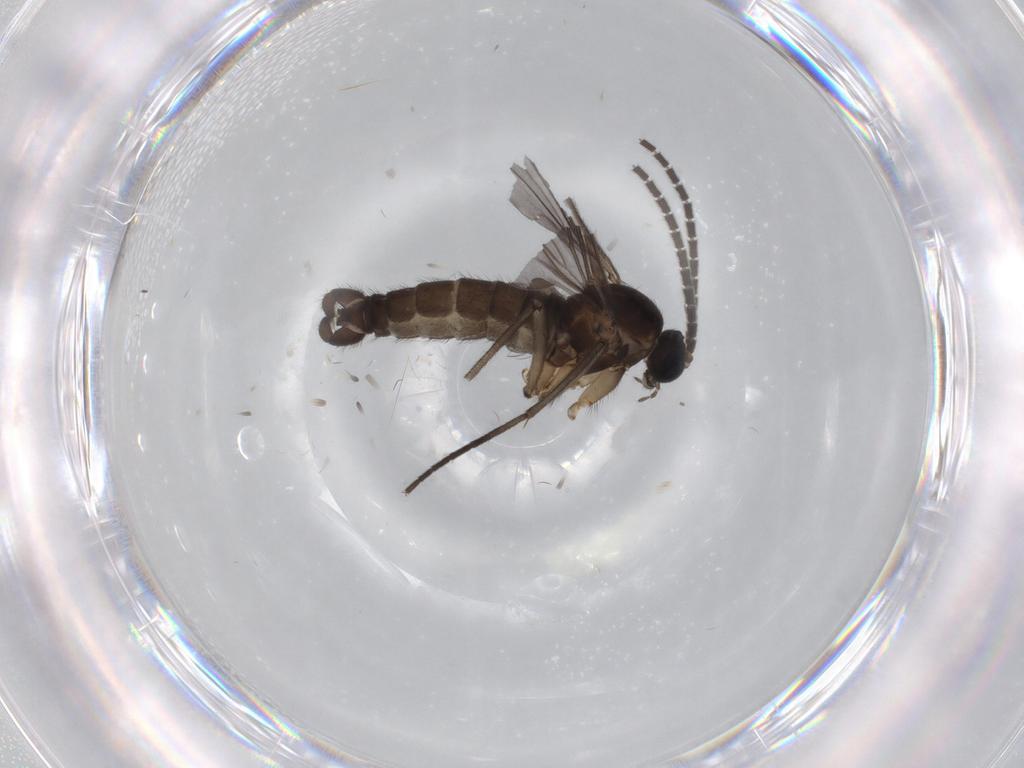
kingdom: Animalia
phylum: Arthropoda
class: Insecta
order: Diptera
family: Sciaridae
